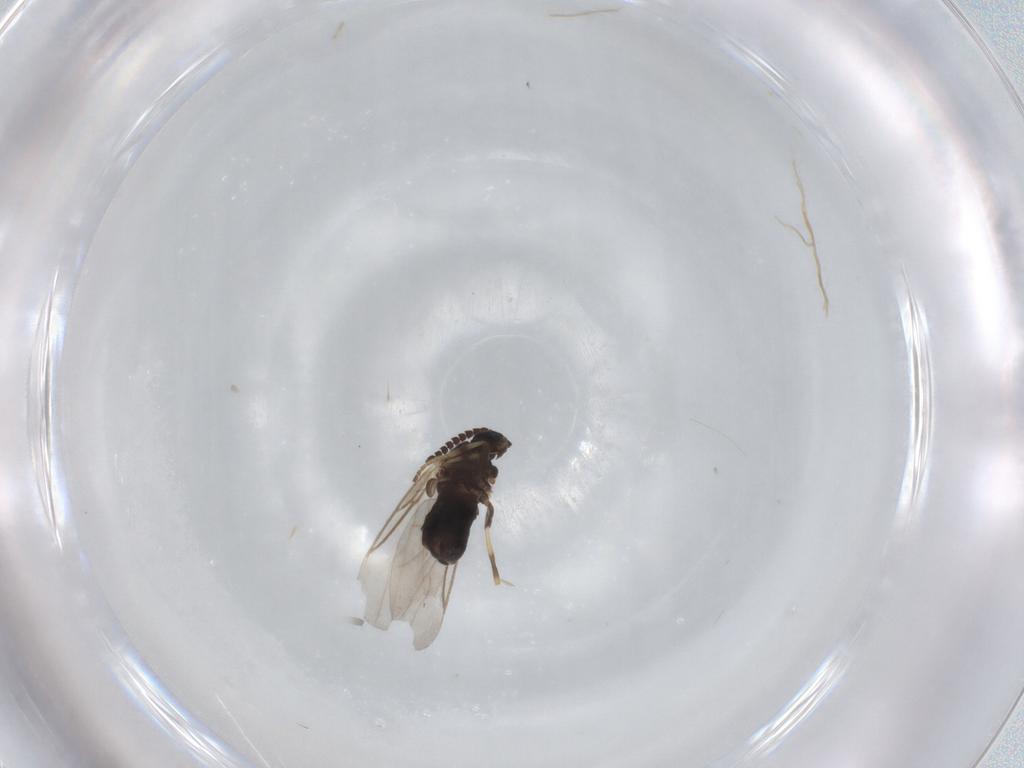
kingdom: Animalia
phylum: Arthropoda
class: Insecta
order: Diptera
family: Scatopsidae
